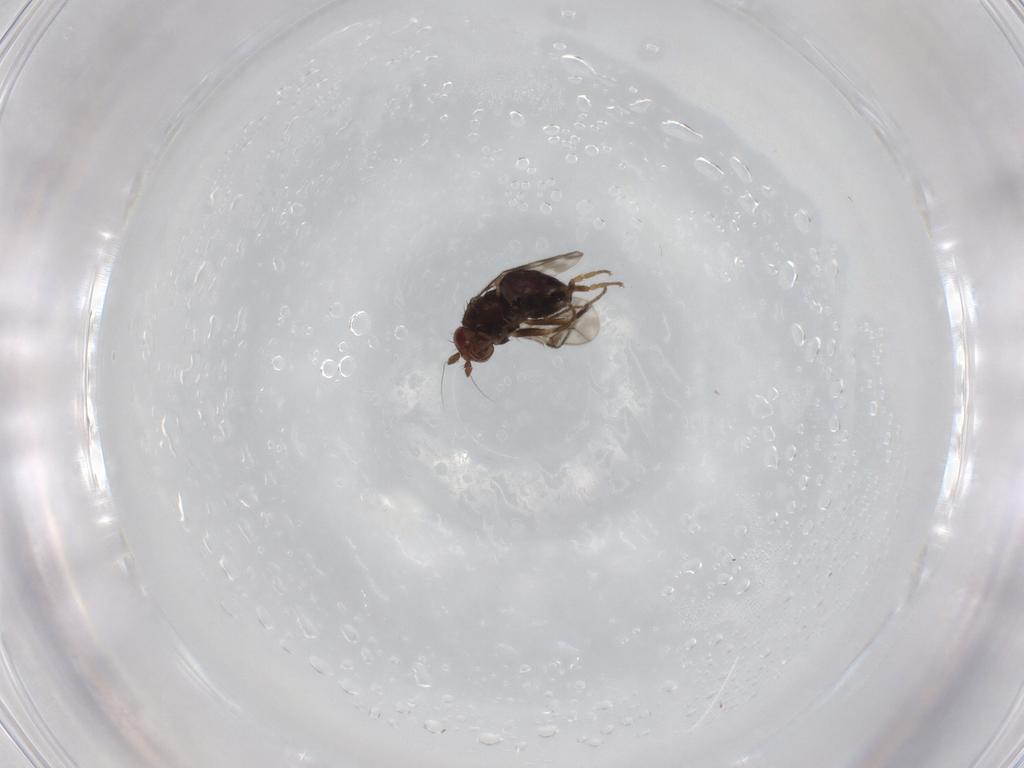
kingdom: Animalia
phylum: Arthropoda
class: Insecta
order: Diptera
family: Sphaeroceridae
